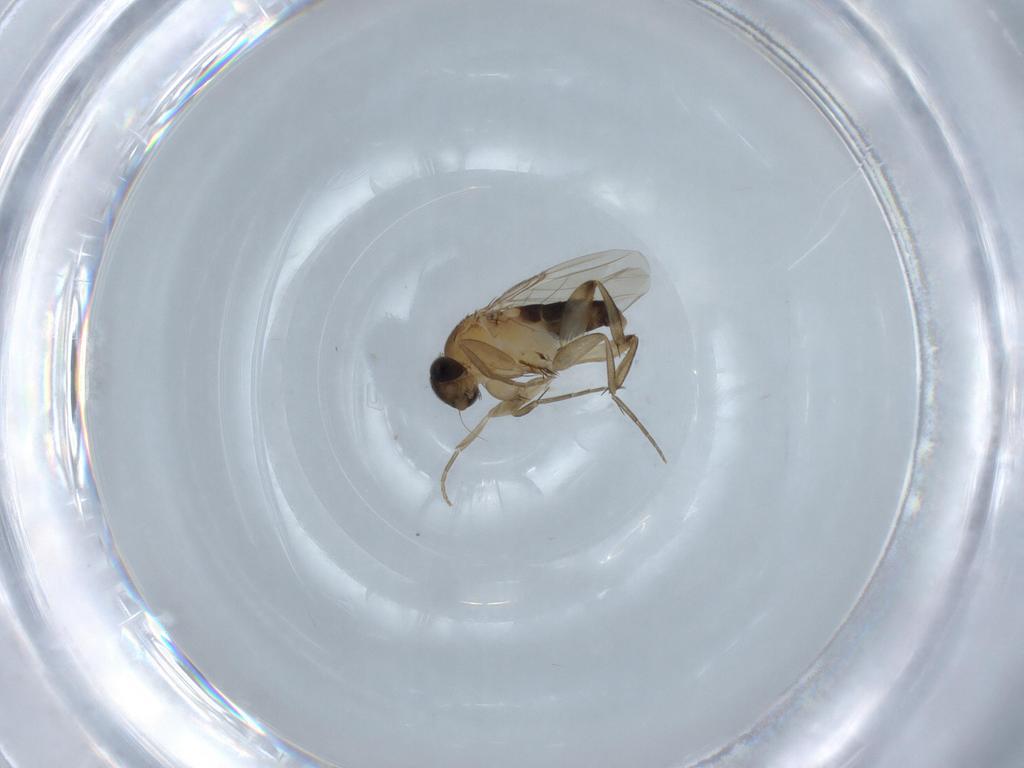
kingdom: Animalia
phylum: Arthropoda
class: Insecta
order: Diptera
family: Phoridae
